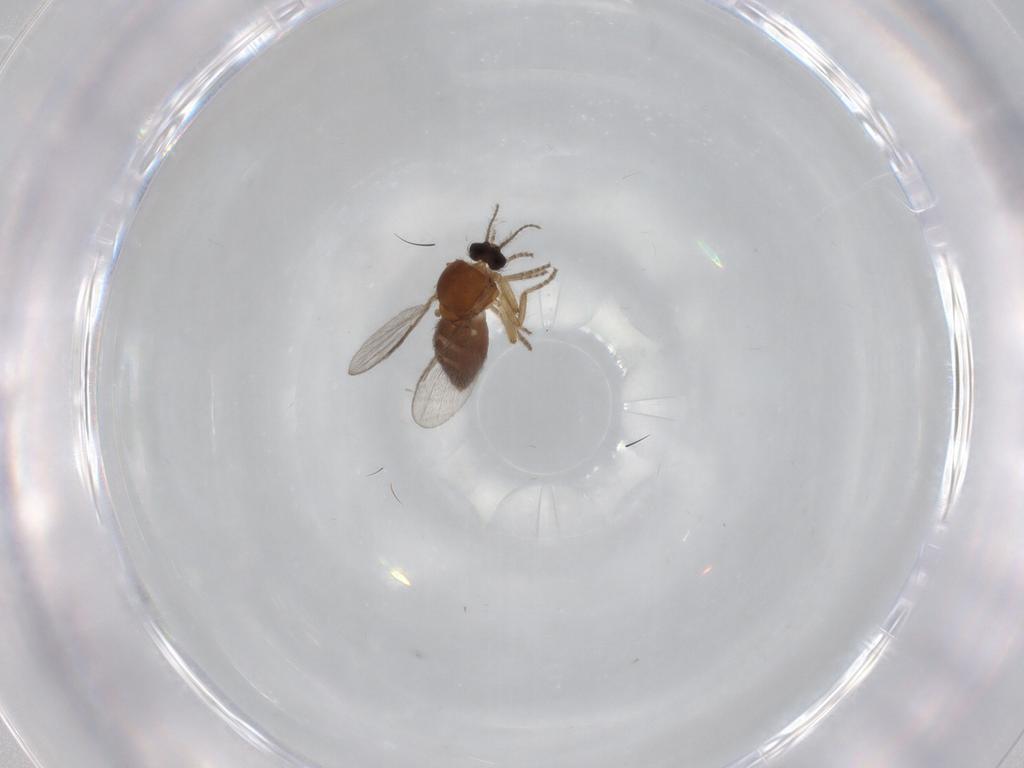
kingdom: Animalia
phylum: Arthropoda
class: Insecta
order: Diptera
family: Ceratopogonidae
